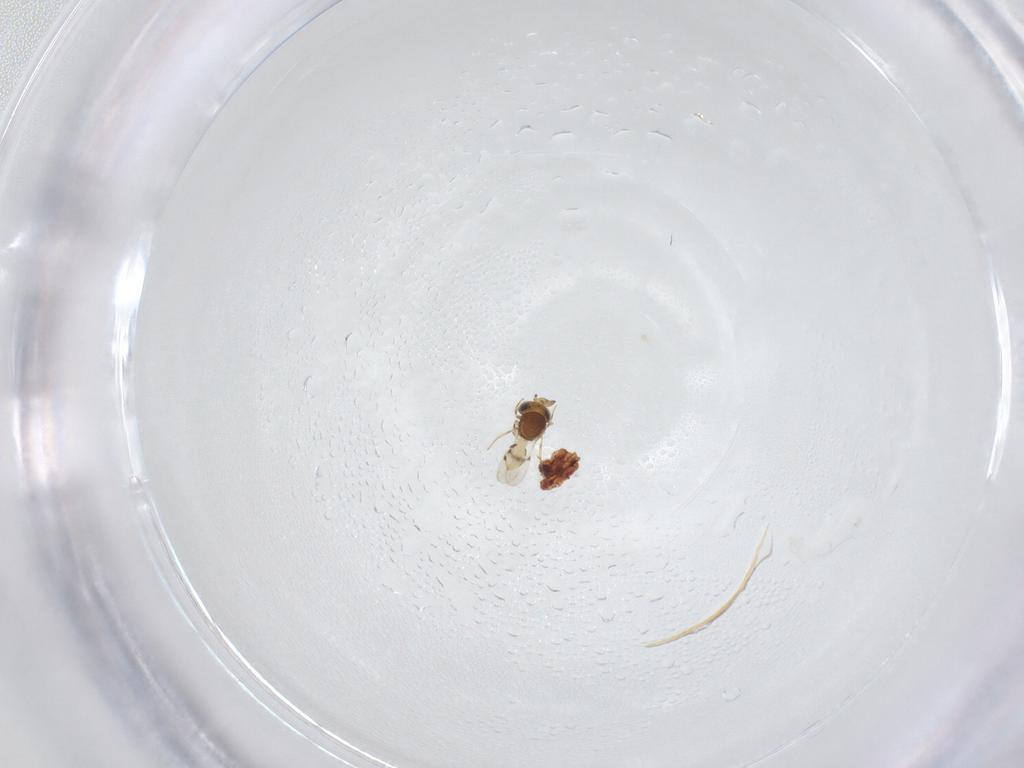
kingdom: Animalia
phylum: Arthropoda
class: Insecta
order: Hymenoptera
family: Scelionidae
